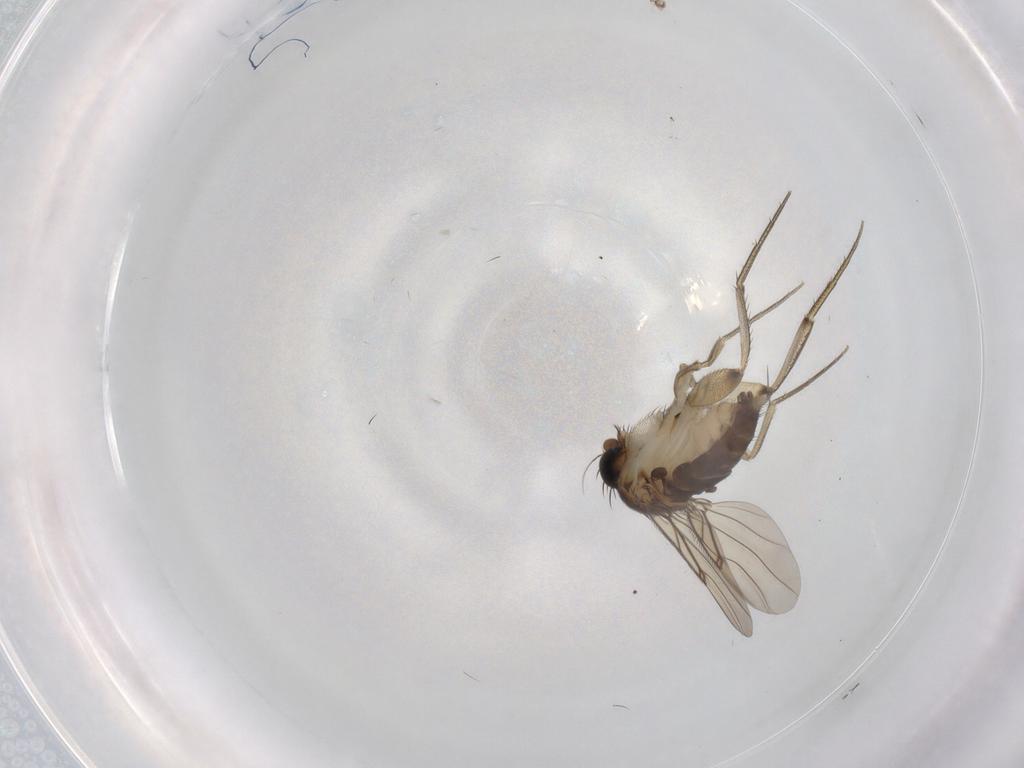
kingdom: Animalia
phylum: Arthropoda
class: Insecta
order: Diptera
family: Phoridae
